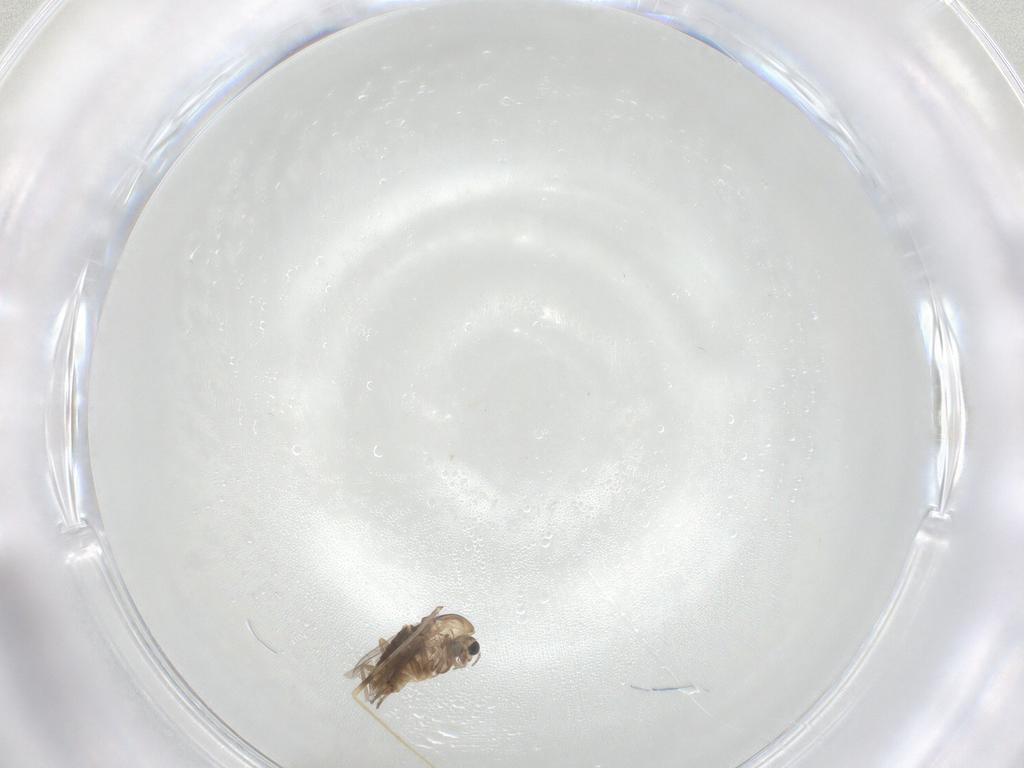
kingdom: Animalia
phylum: Arthropoda
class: Insecta
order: Diptera
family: Chironomidae
